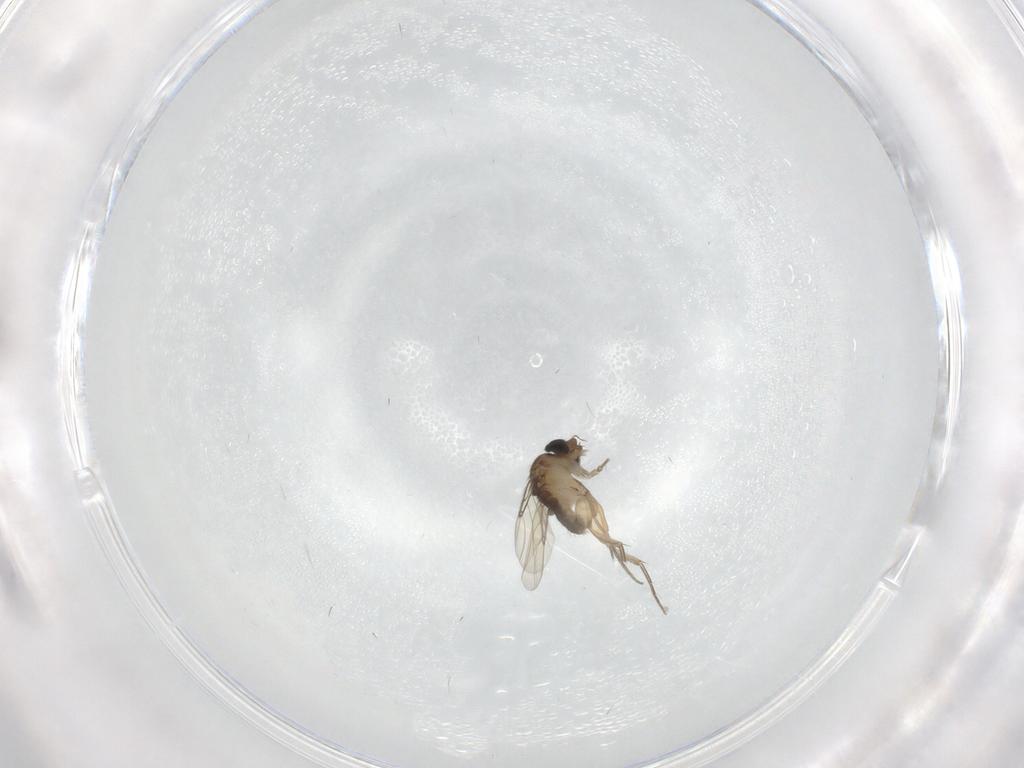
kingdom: Animalia
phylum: Arthropoda
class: Insecta
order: Diptera
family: Phoridae
